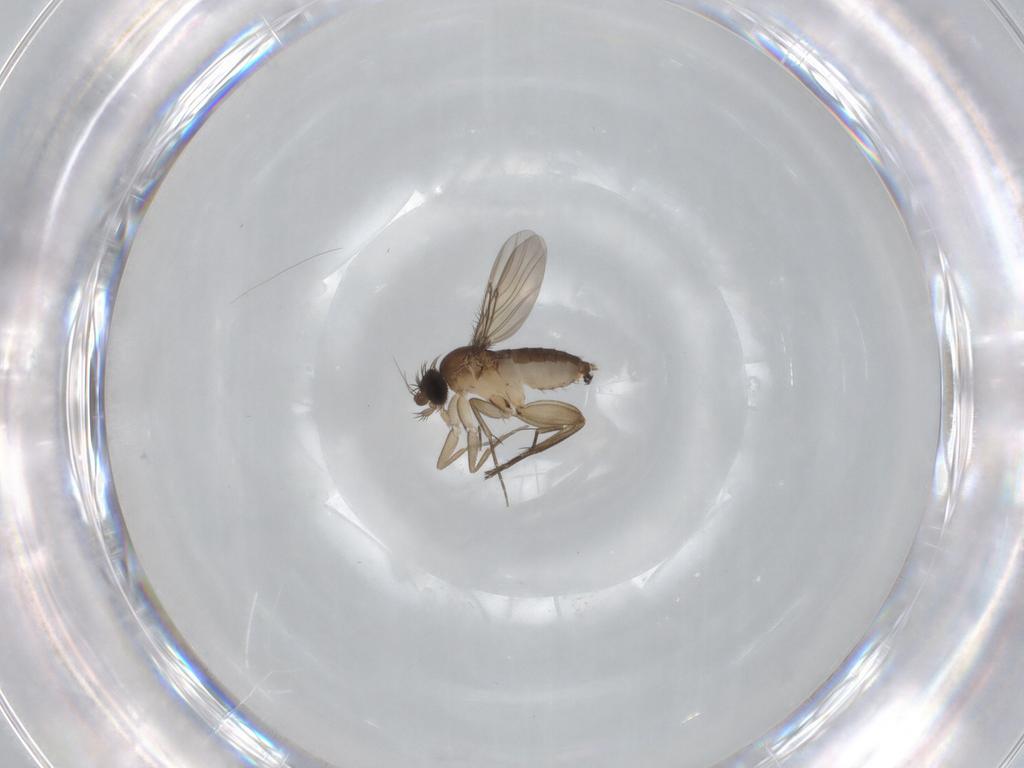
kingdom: Animalia
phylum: Arthropoda
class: Insecta
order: Diptera
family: Phoridae
